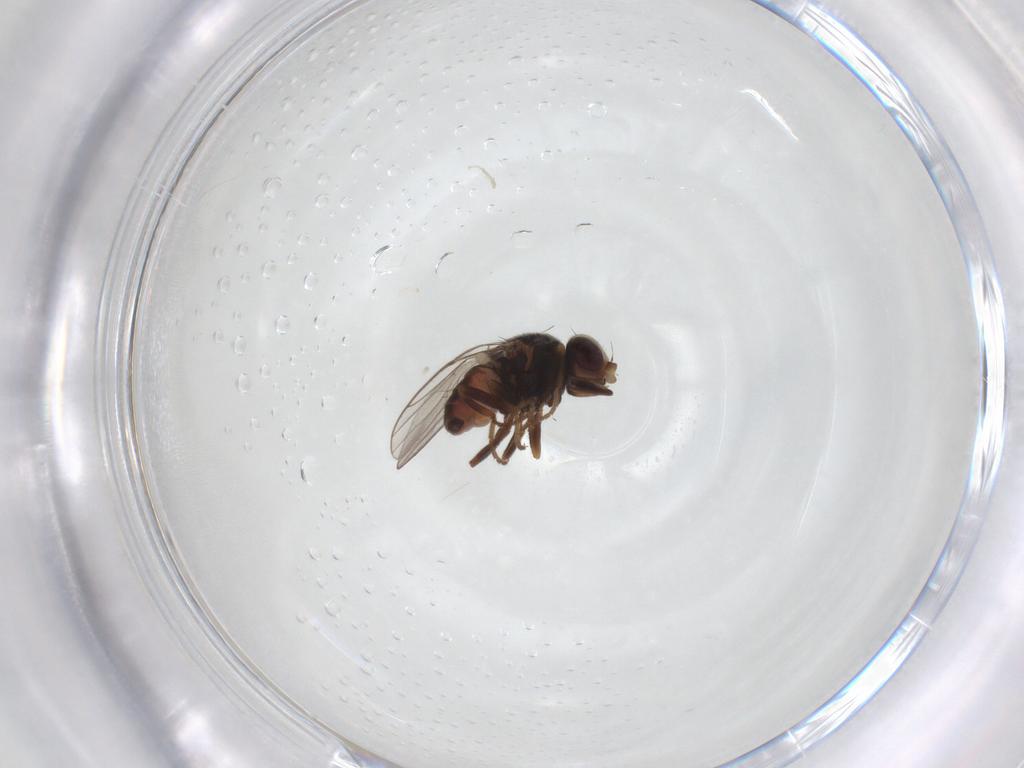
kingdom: Animalia
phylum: Arthropoda
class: Insecta
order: Diptera
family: Chloropidae
